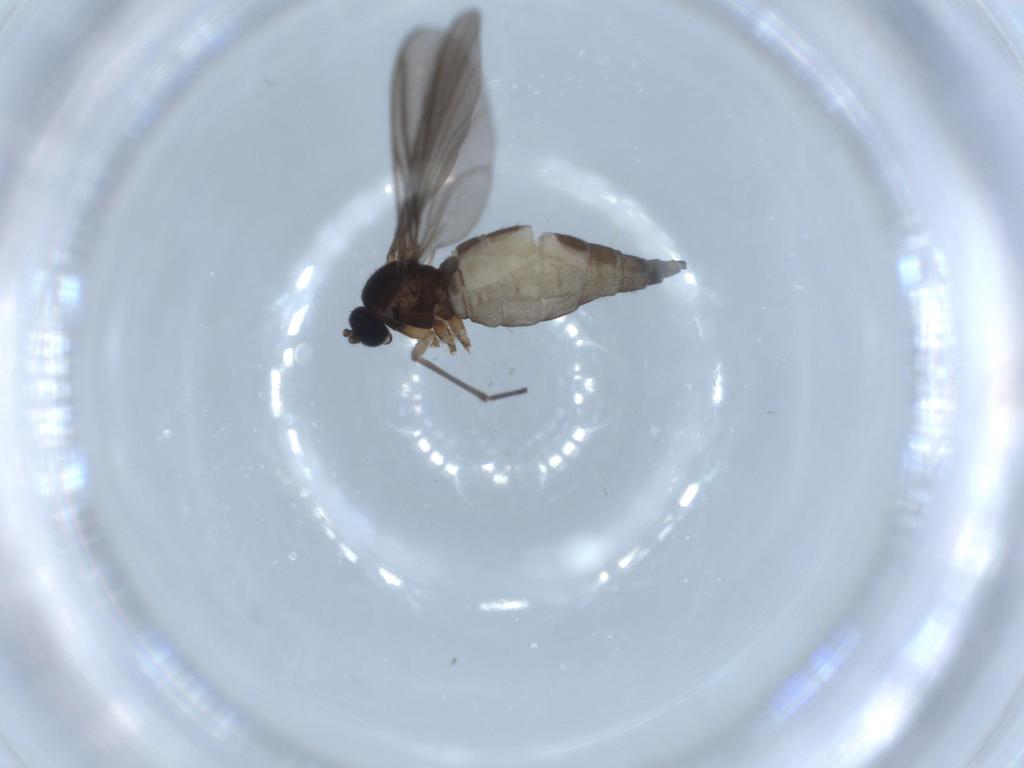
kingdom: Animalia
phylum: Arthropoda
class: Insecta
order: Diptera
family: Sciaridae
